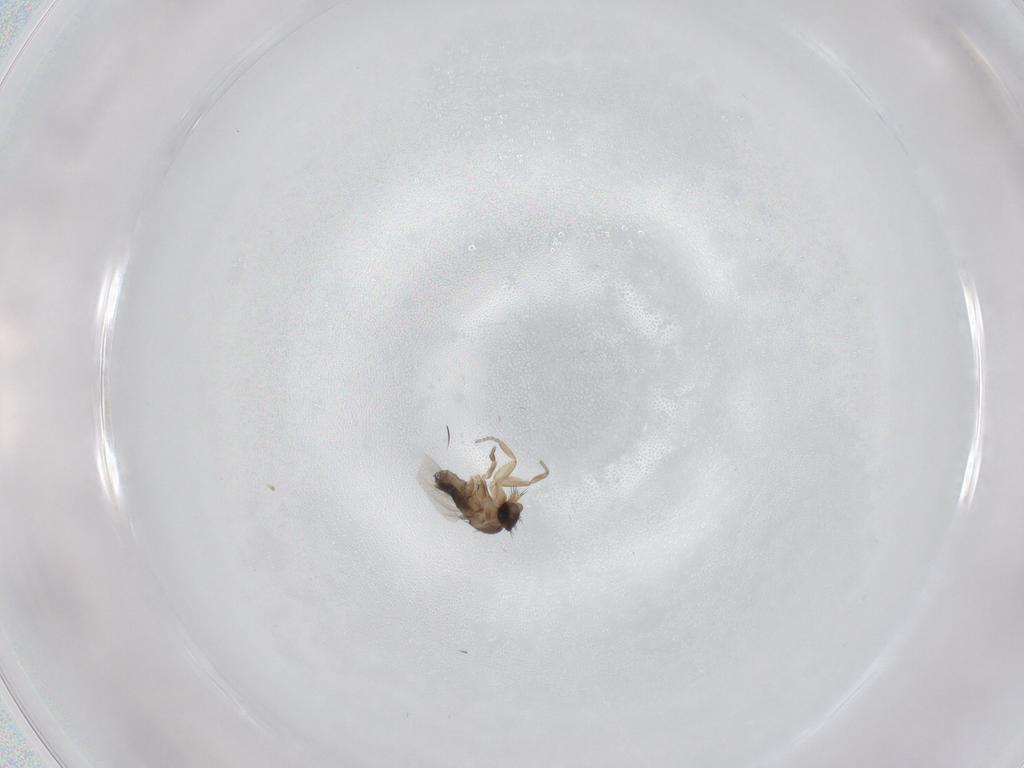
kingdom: Animalia
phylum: Arthropoda
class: Insecta
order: Diptera
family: Phoridae
